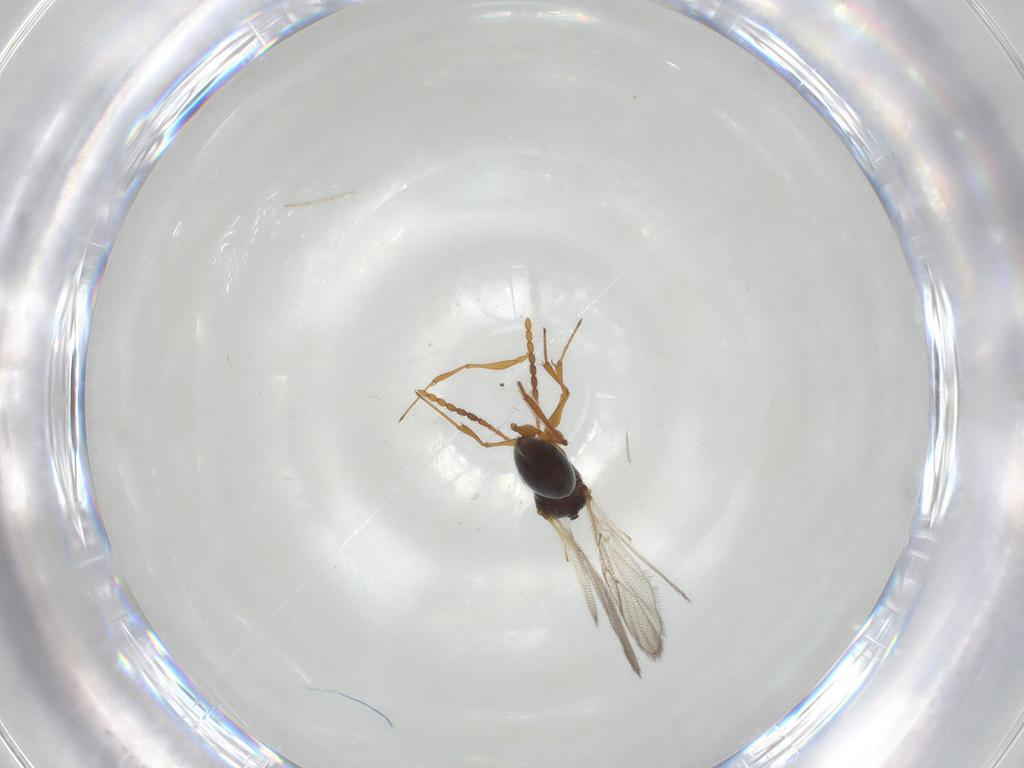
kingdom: Animalia
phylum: Arthropoda
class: Insecta
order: Hymenoptera
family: Figitidae
